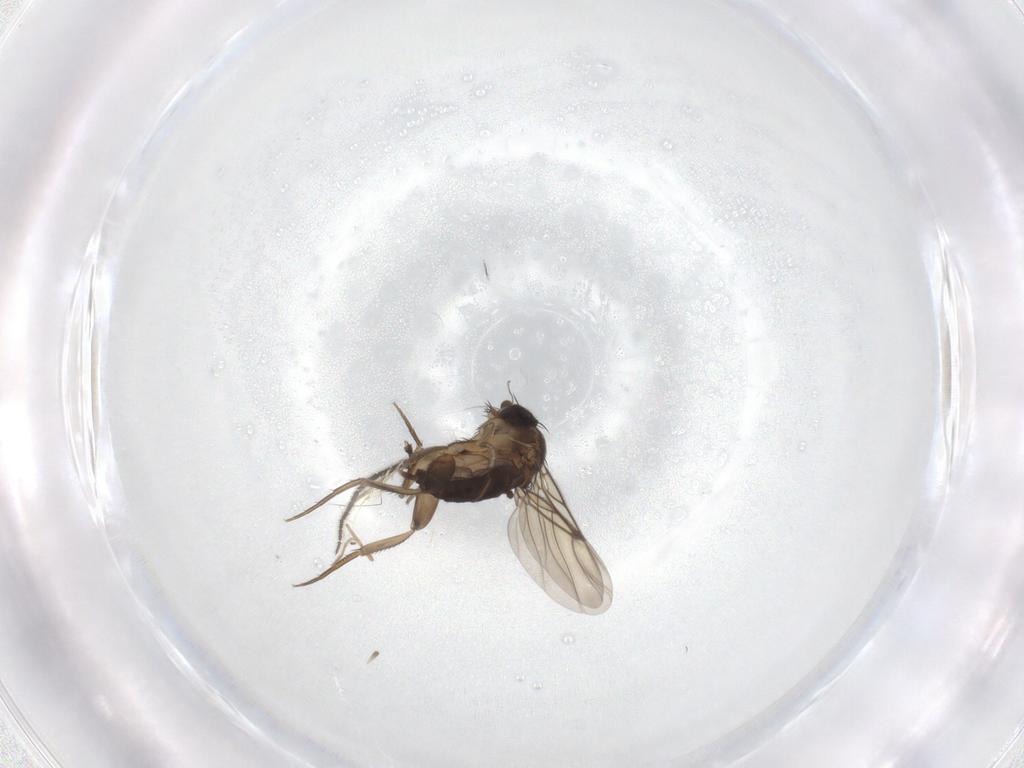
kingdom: Animalia
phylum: Arthropoda
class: Insecta
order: Diptera
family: Phoridae
